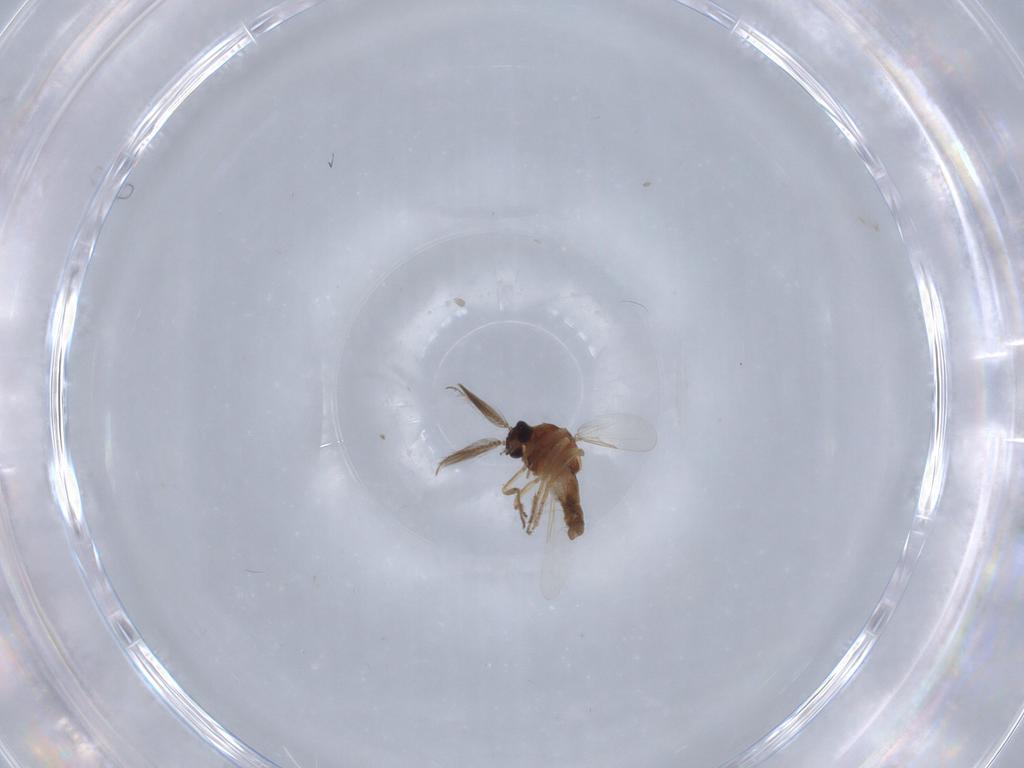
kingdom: Animalia
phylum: Arthropoda
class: Insecta
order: Diptera
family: Ceratopogonidae
